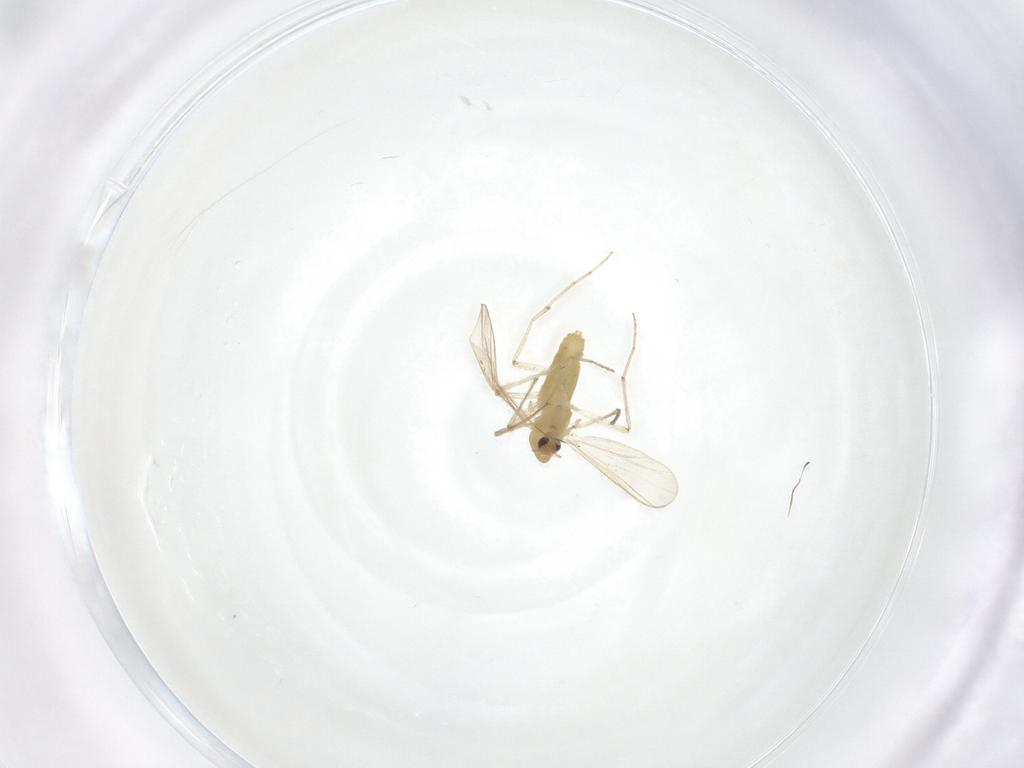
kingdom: Animalia
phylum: Arthropoda
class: Insecta
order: Diptera
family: Chironomidae
